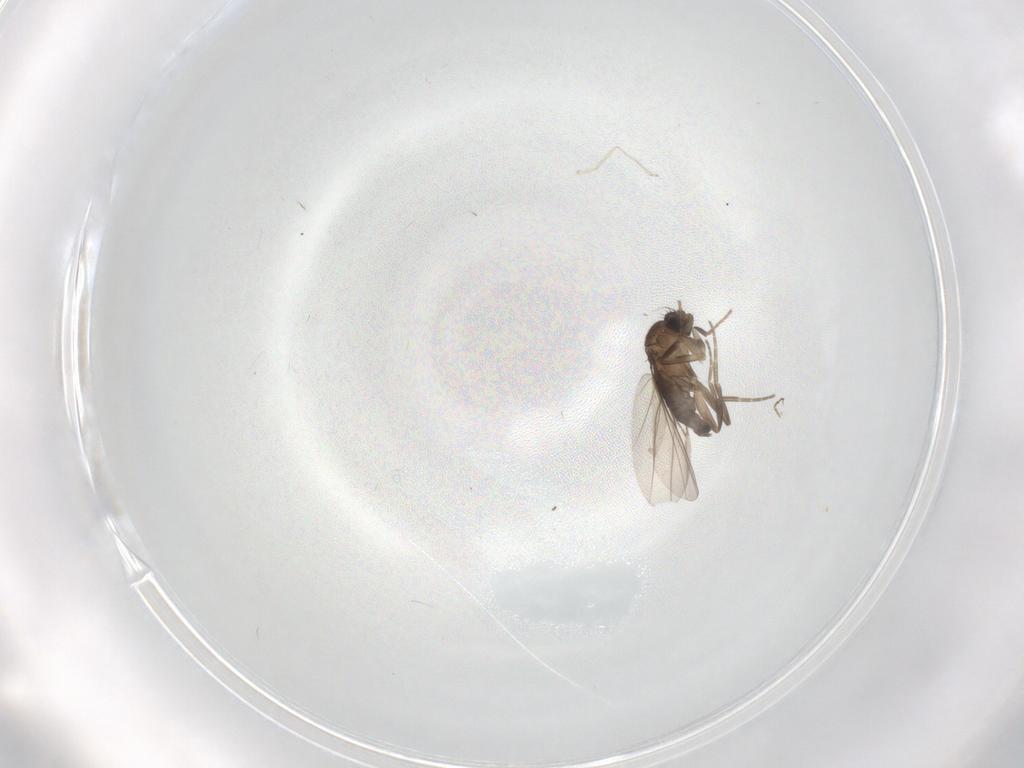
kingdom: Animalia
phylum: Arthropoda
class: Insecta
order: Diptera
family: Phoridae
